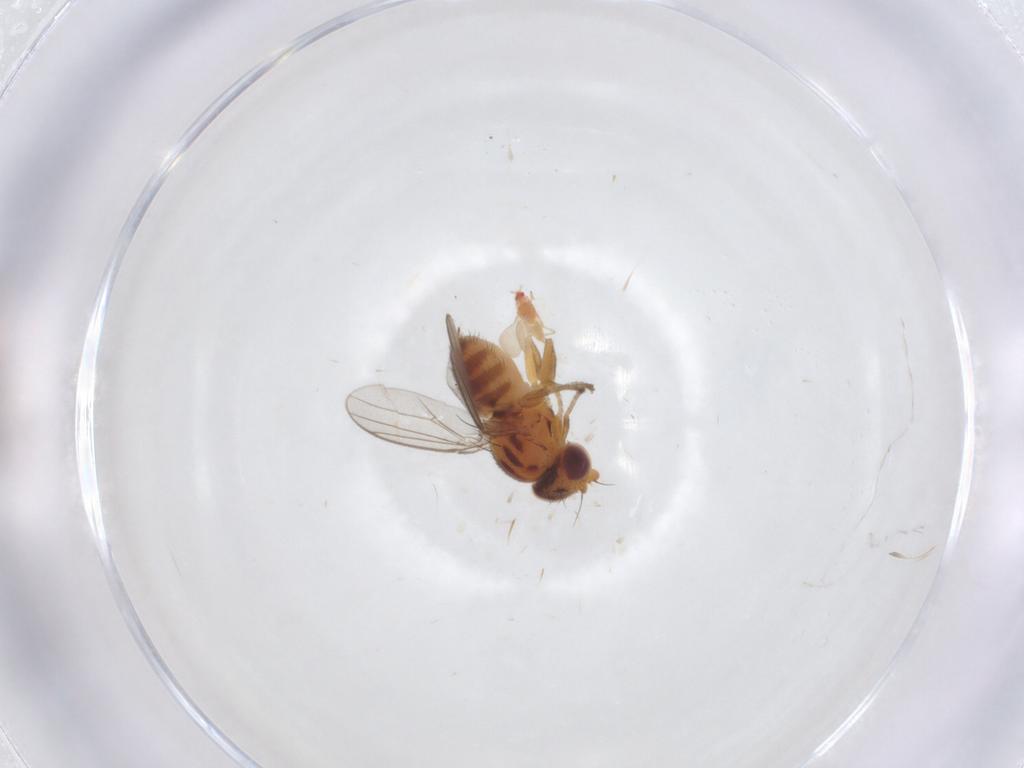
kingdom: Animalia
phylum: Arthropoda
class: Insecta
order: Diptera
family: Chloropidae
